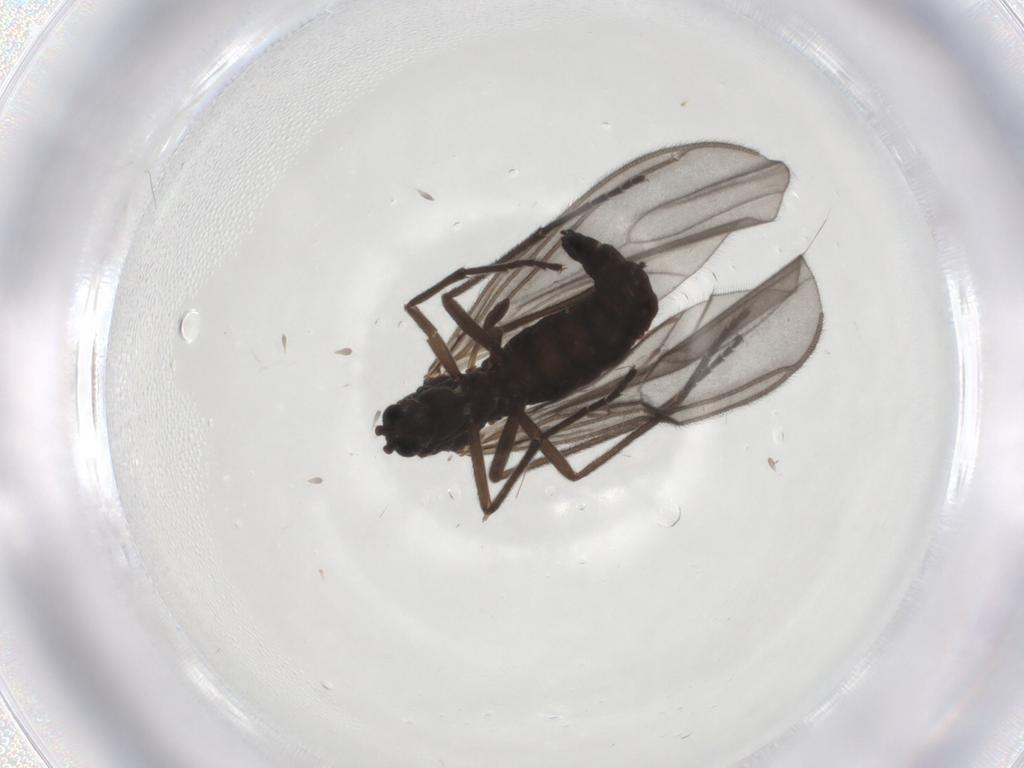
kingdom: Animalia
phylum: Arthropoda
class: Insecta
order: Diptera
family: Sciaridae
